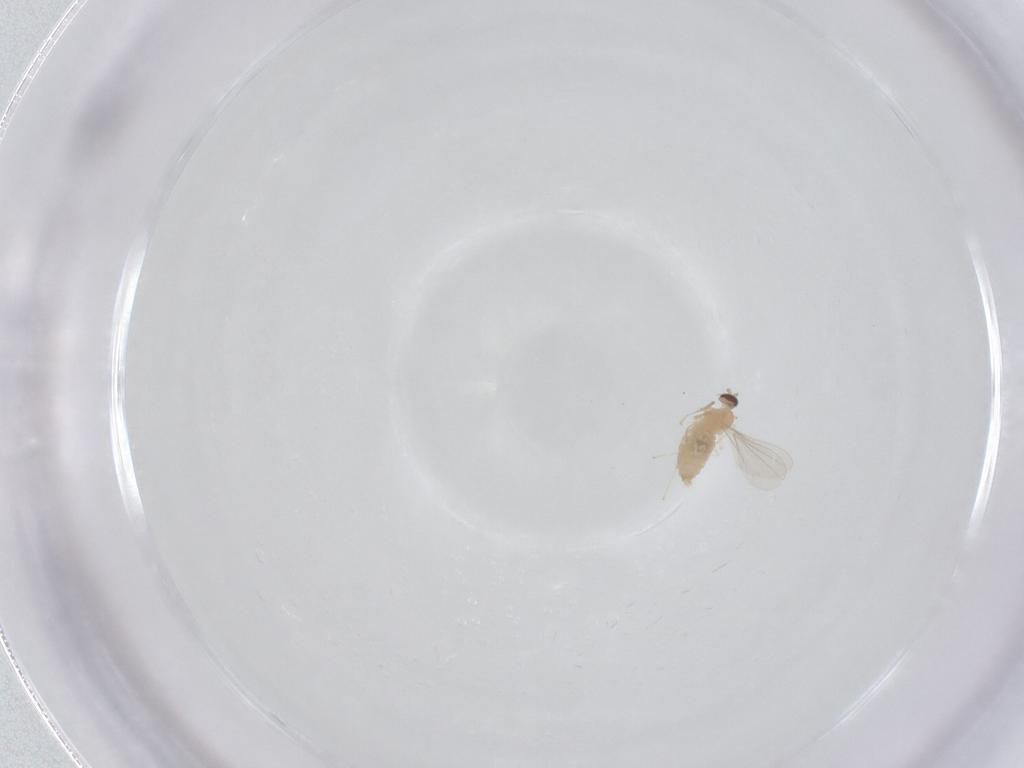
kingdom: Animalia
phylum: Arthropoda
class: Insecta
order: Diptera
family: Cecidomyiidae
